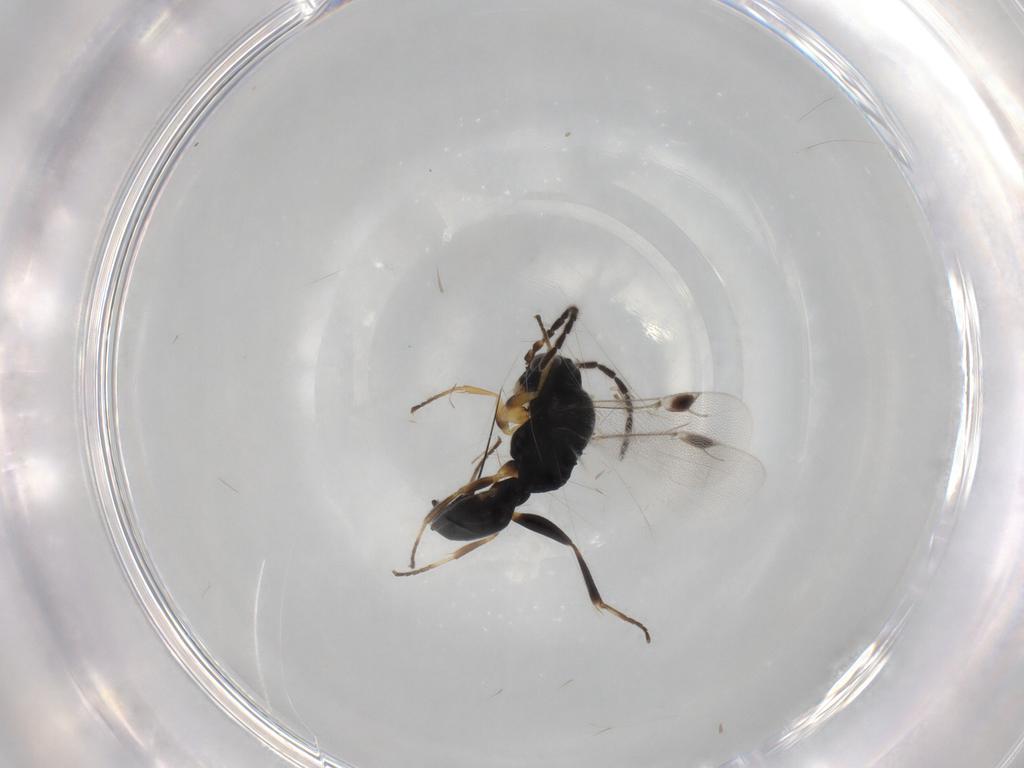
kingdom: Animalia
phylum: Arthropoda
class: Insecta
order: Hymenoptera
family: Dryinidae
